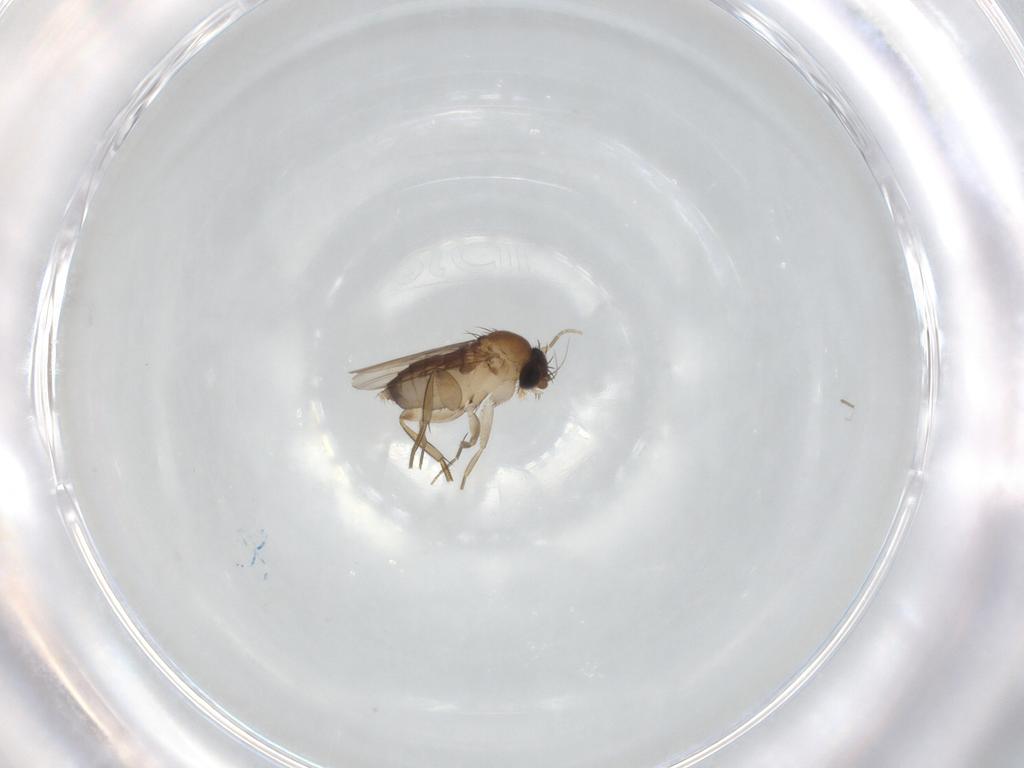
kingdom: Animalia
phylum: Arthropoda
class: Insecta
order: Diptera
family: Phoridae
